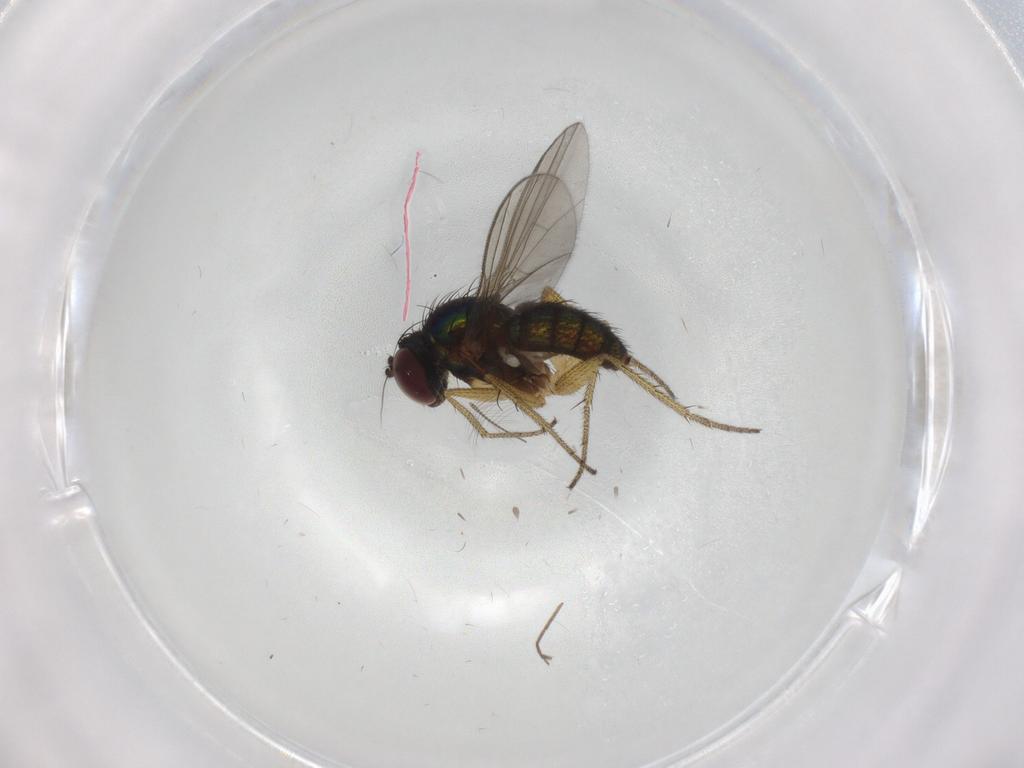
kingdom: Animalia
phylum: Arthropoda
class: Insecta
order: Diptera
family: Dolichopodidae
